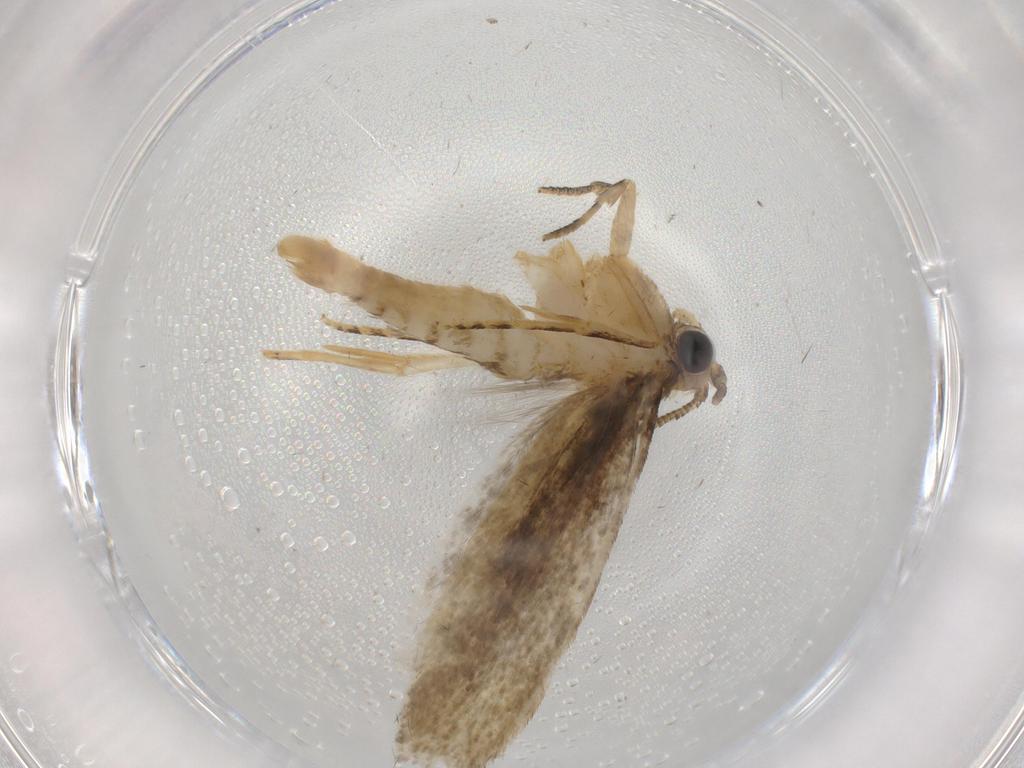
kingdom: Animalia
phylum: Arthropoda
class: Insecta
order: Lepidoptera
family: Tineidae
